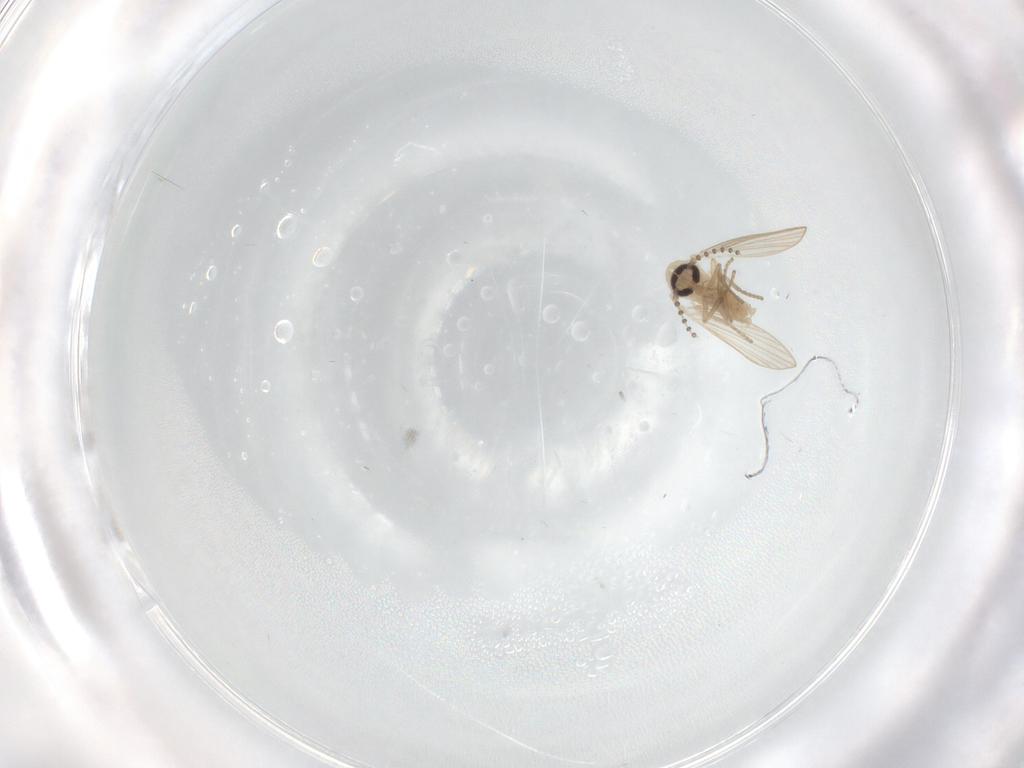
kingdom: Animalia
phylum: Arthropoda
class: Insecta
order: Diptera
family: Psychodidae
